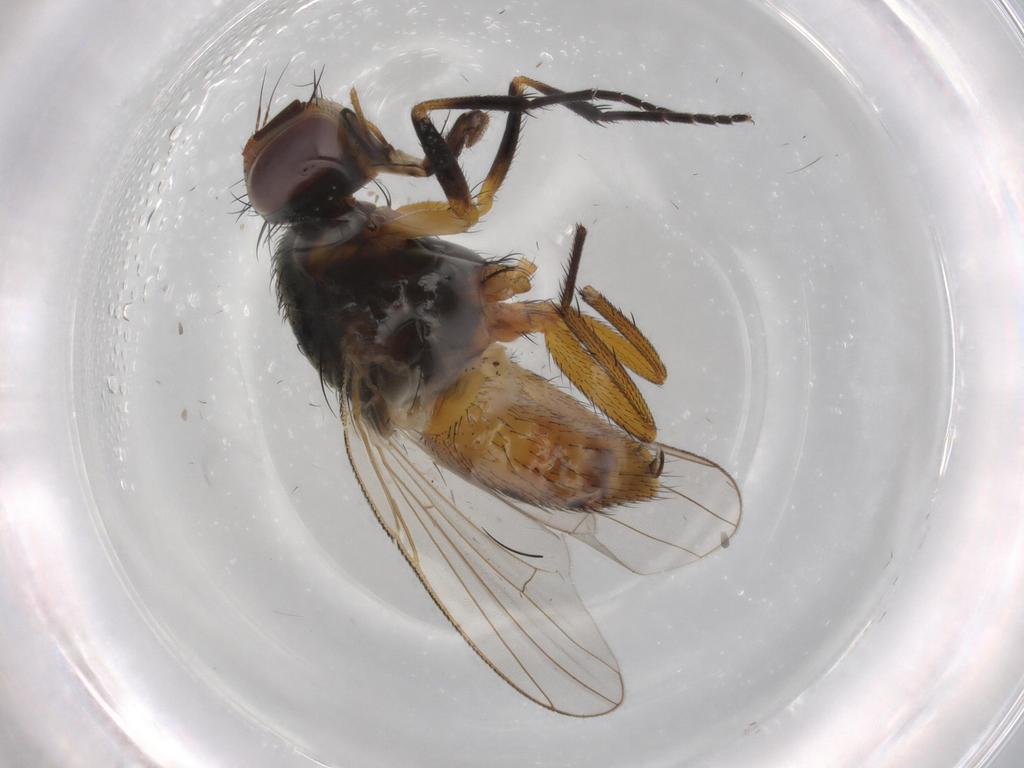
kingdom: Animalia
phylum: Arthropoda
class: Insecta
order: Diptera
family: Muscidae
